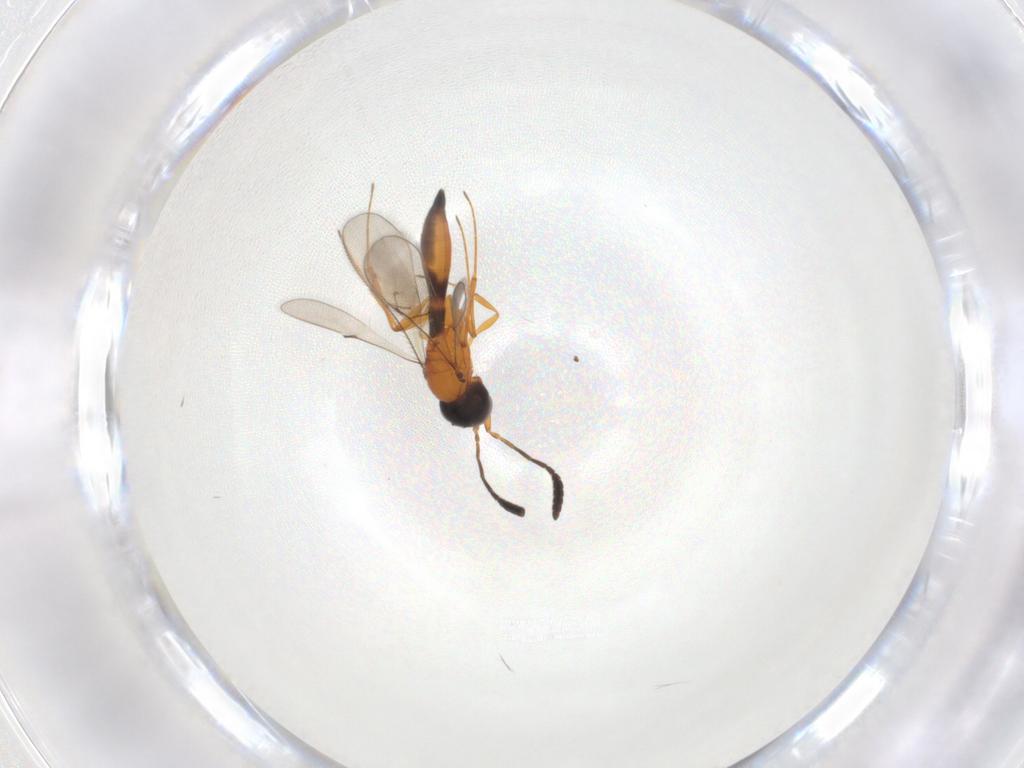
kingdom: Animalia
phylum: Arthropoda
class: Insecta
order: Hymenoptera
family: Scelionidae
